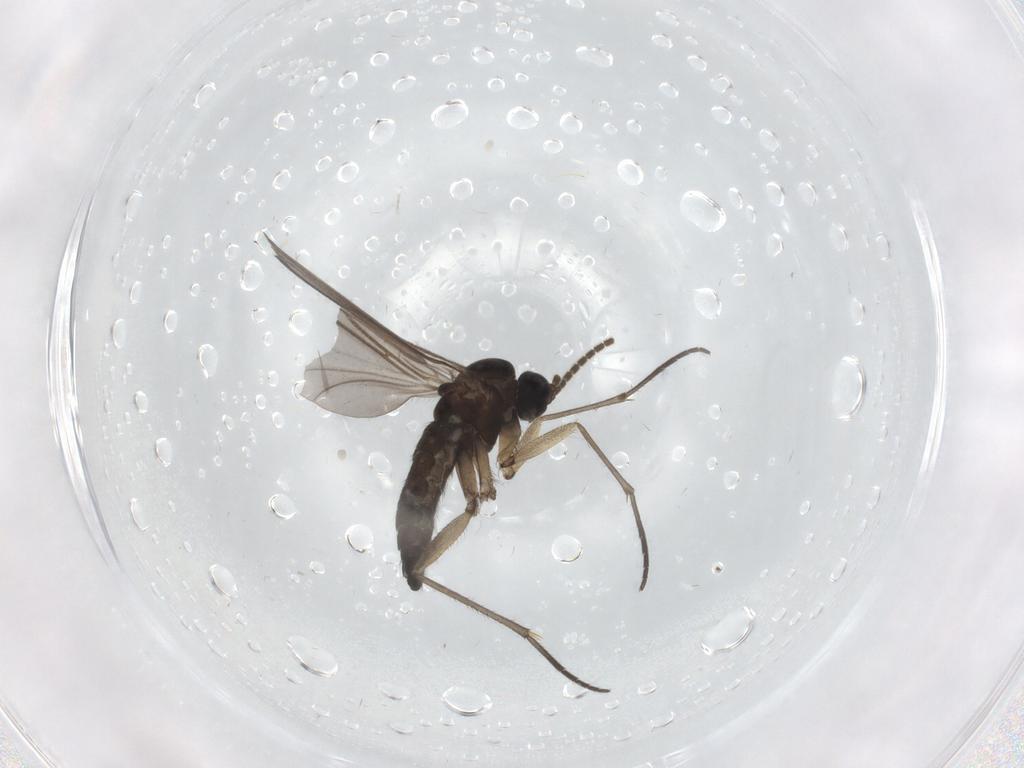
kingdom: Animalia
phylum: Arthropoda
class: Insecta
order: Diptera
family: Sciaridae
